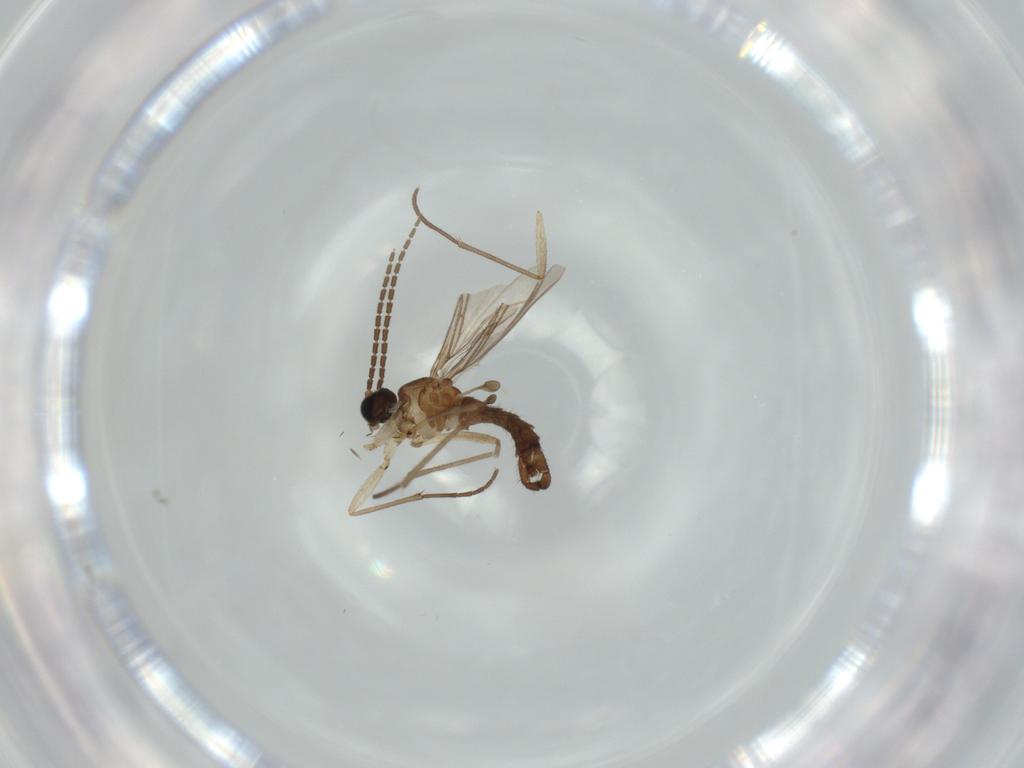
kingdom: Animalia
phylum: Arthropoda
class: Insecta
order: Diptera
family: Sciaridae
